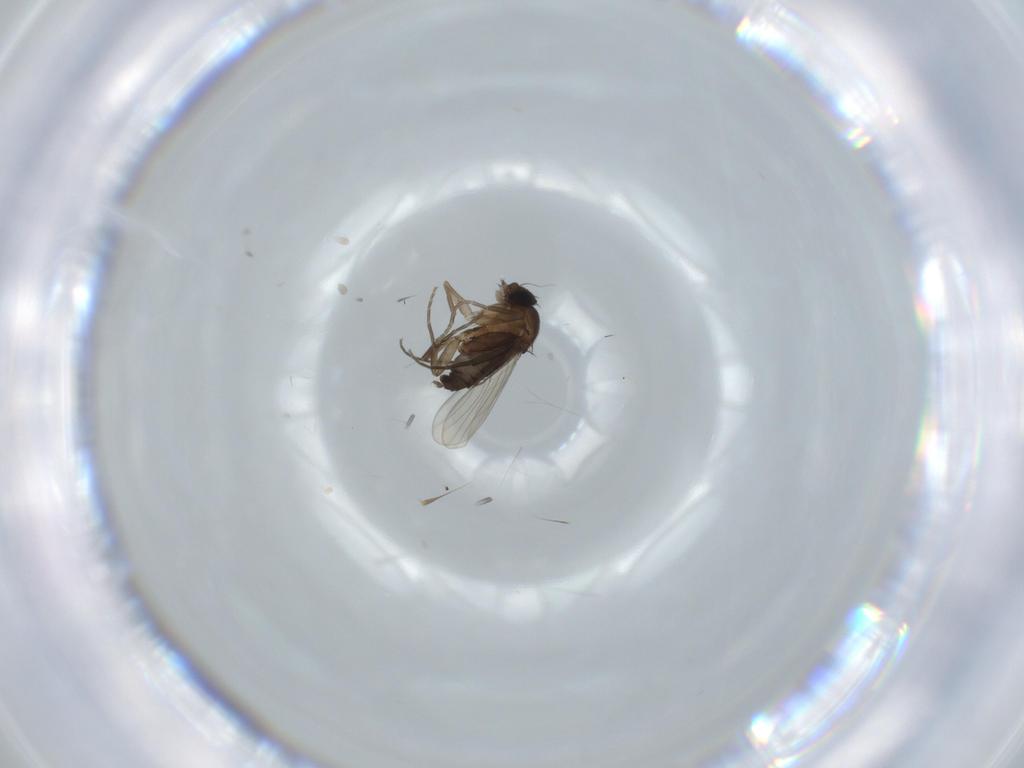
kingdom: Animalia
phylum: Arthropoda
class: Insecta
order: Diptera
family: Phoridae
